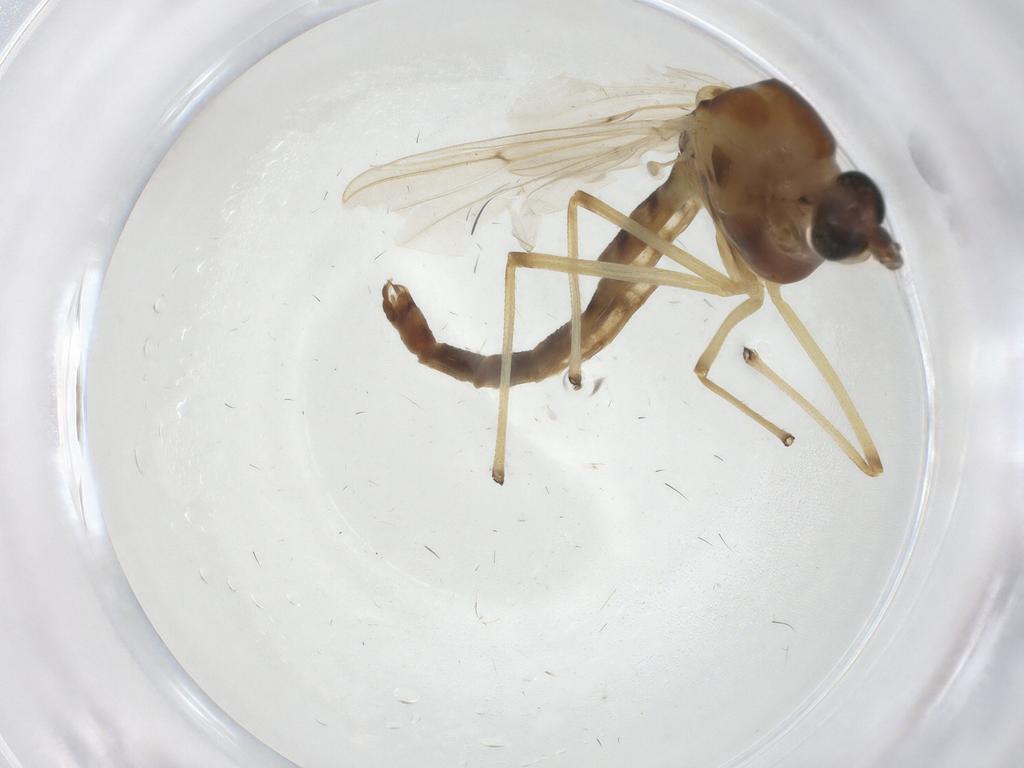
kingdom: Animalia
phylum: Arthropoda
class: Insecta
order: Diptera
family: Chironomidae
